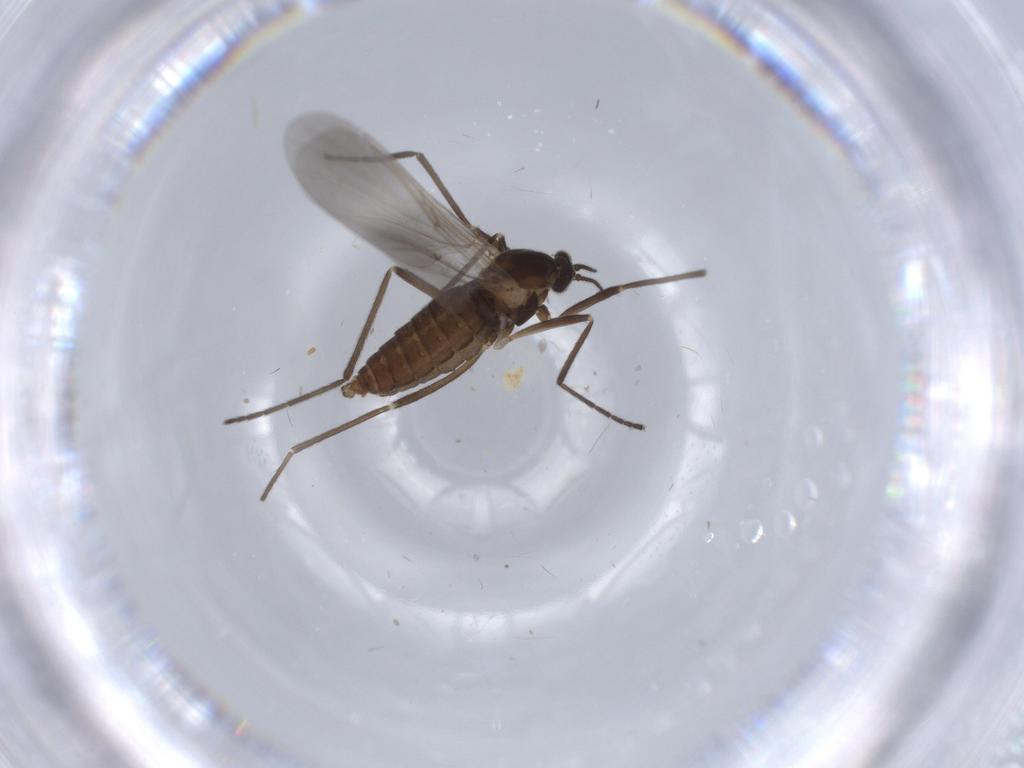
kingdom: Animalia
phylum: Arthropoda
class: Insecta
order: Diptera
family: Cecidomyiidae
